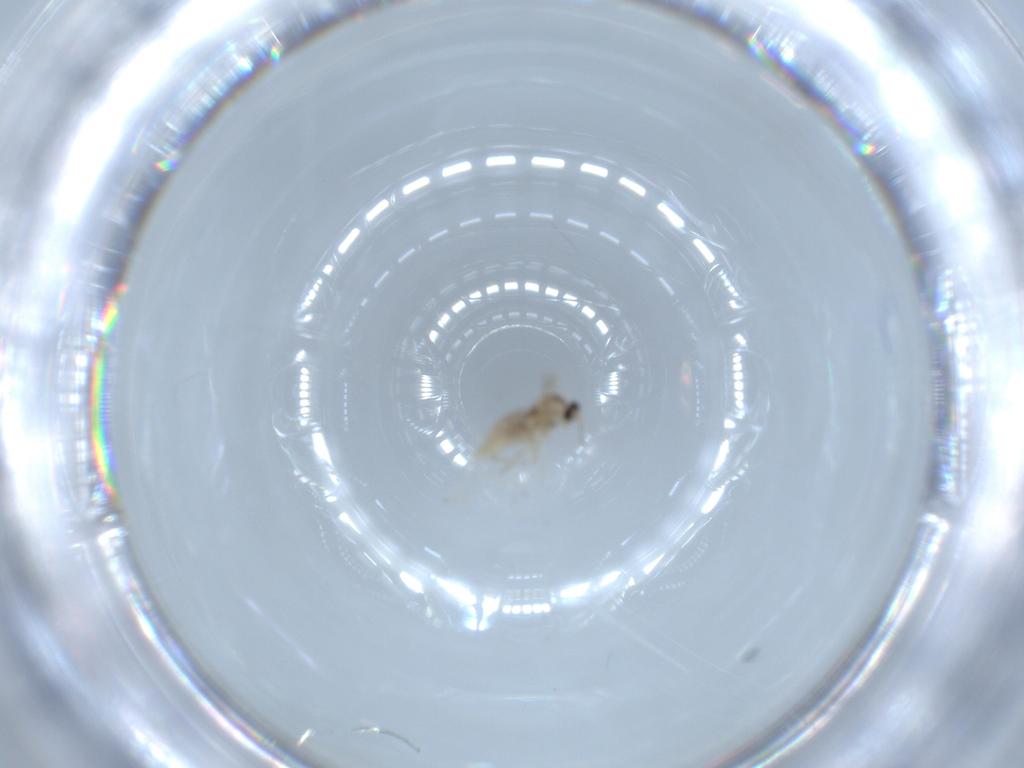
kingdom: Animalia
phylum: Arthropoda
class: Insecta
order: Diptera
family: Cecidomyiidae
